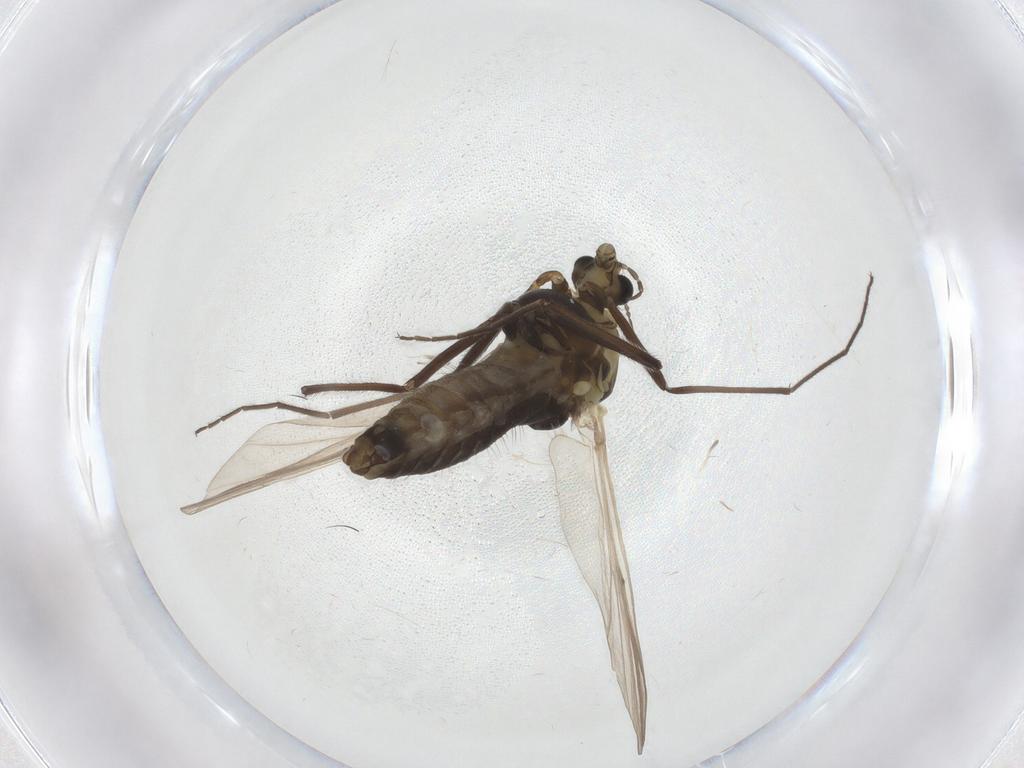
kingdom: Animalia
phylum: Arthropoda
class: Insecta
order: Diptera
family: Chironomidae
